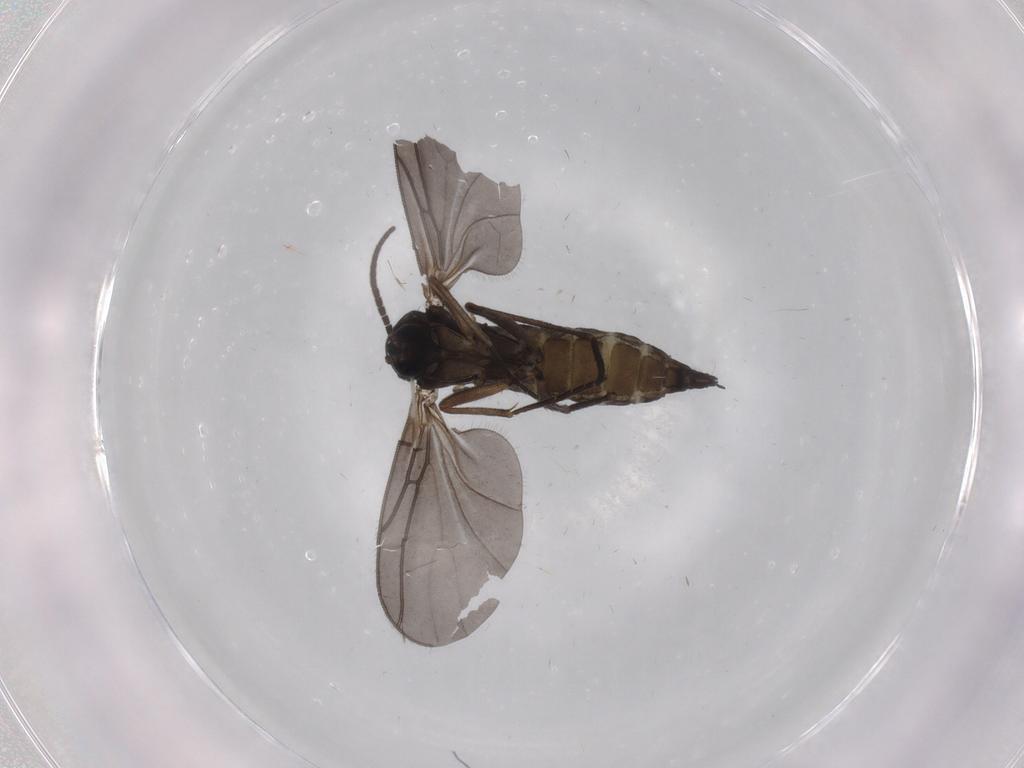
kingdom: Animalia
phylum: Arthropoda
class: Insecta
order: Diptera
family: Sciaridae
